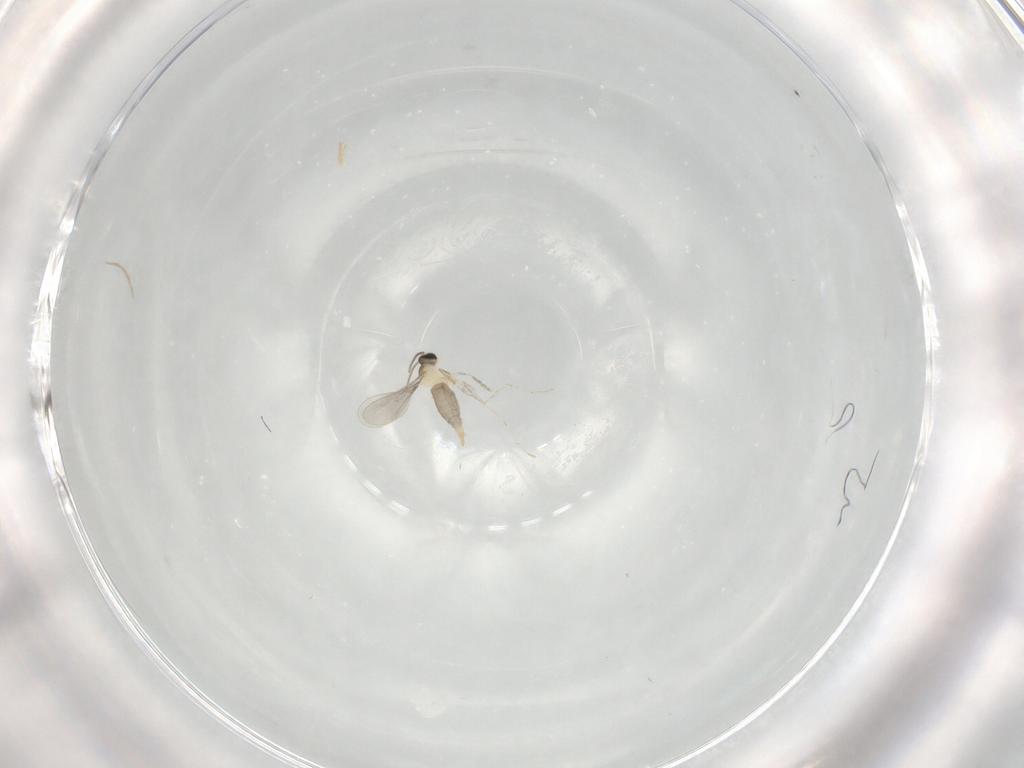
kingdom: Animalia
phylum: Arthropoda
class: Insecta
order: Diptera
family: Cecidomyiidae
